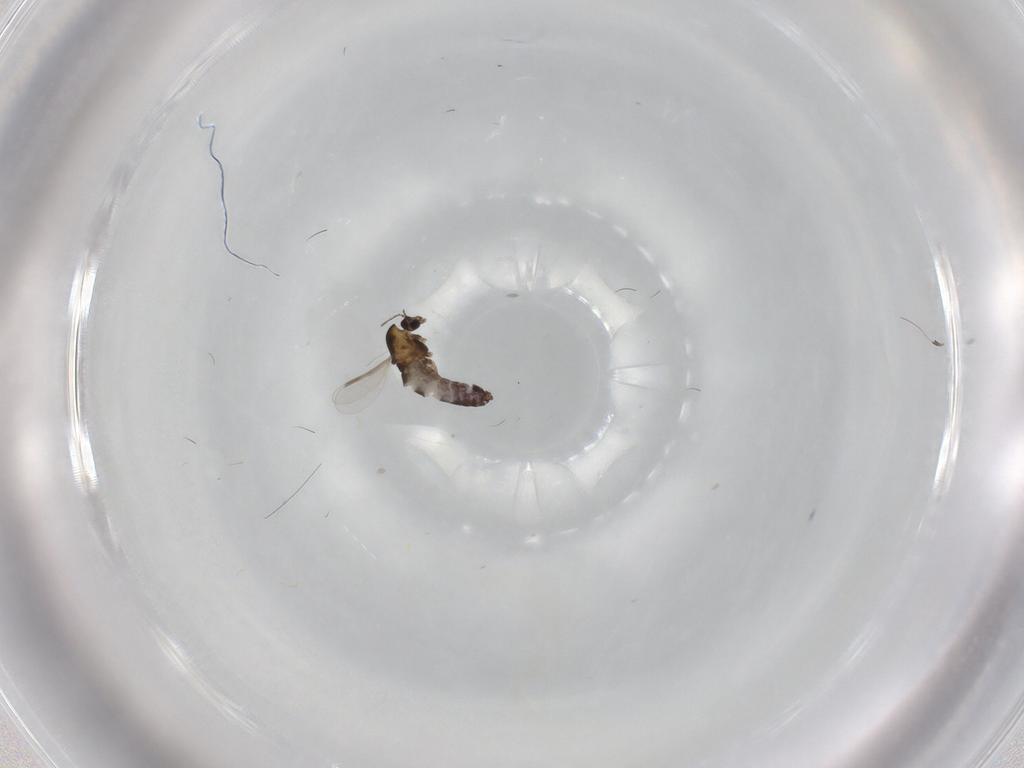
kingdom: Animalia
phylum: Arthropoda
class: Insecta
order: Diptera
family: Chironomidae
